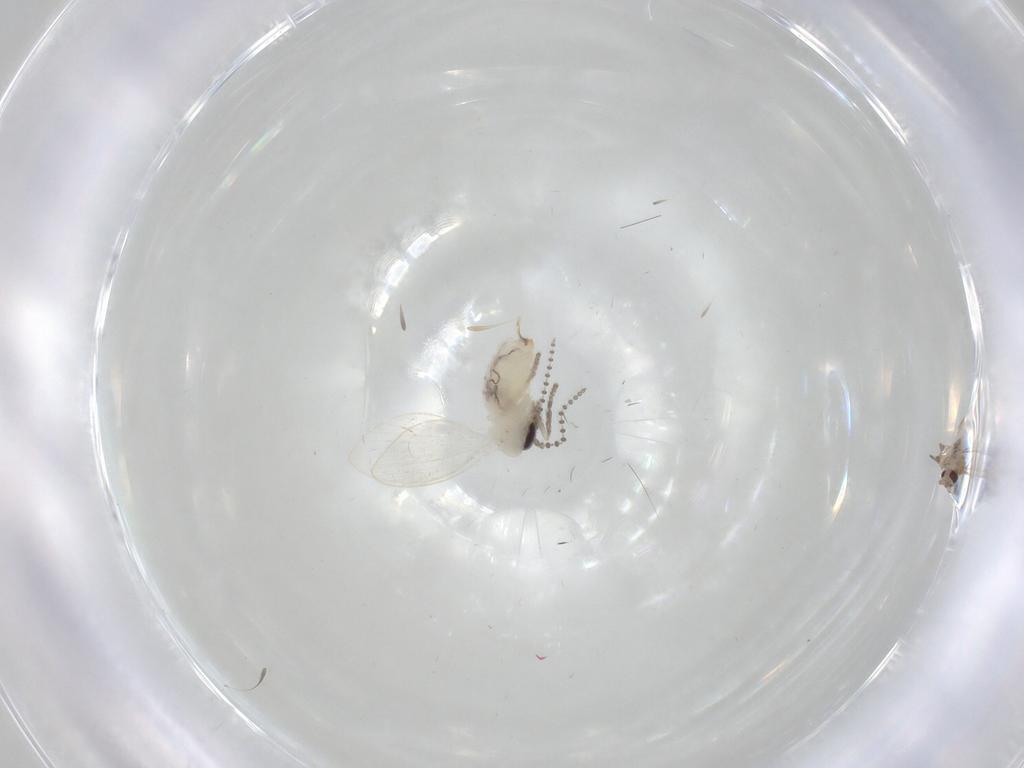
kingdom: Animalia
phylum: Arthropoda
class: Insecta
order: Diptera
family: Psychodidae
